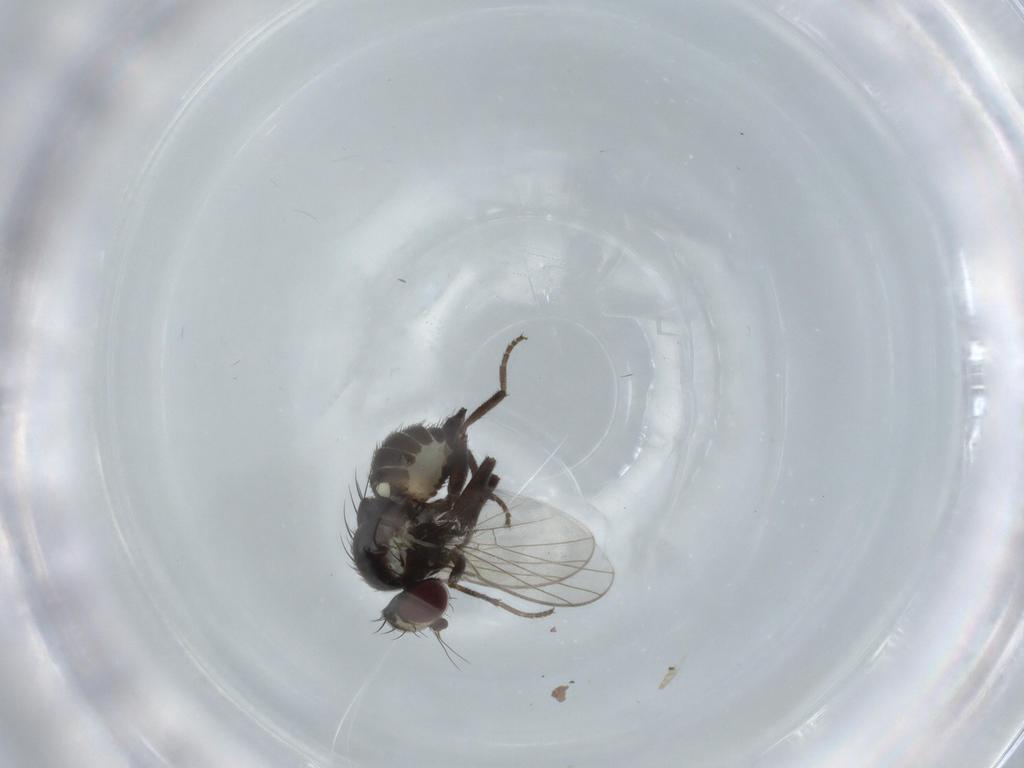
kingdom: Animalia
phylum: Arthropoda
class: Insecta
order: Diptera
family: Agromyzidae
